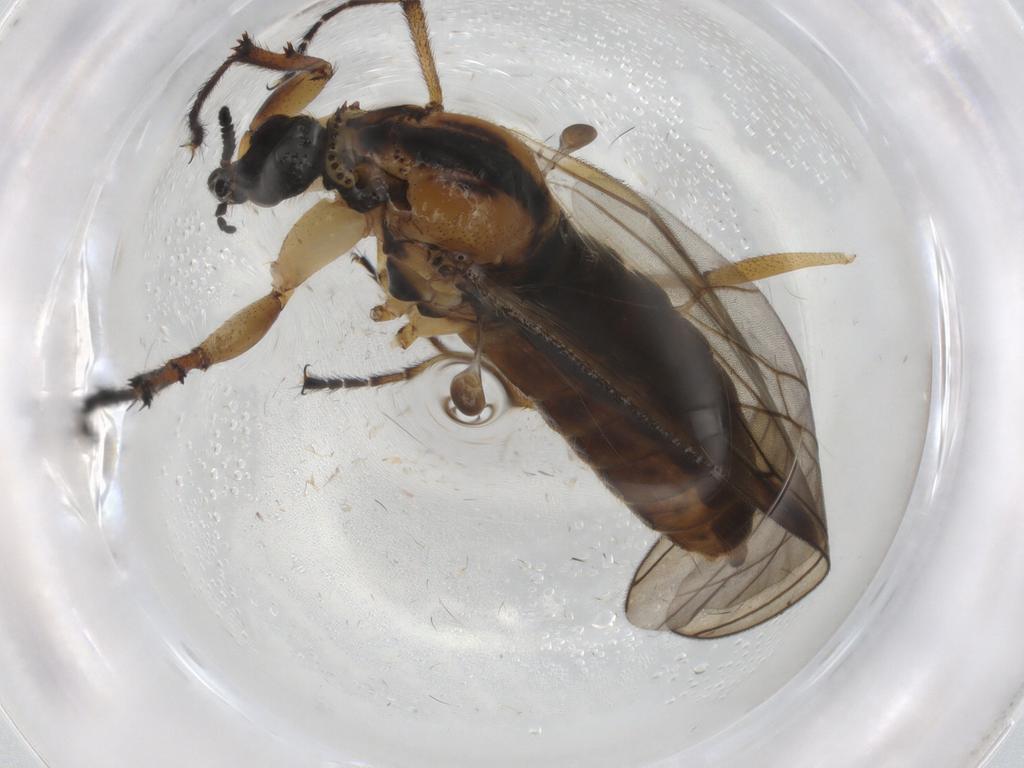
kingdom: Animalia
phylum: Arthropoda
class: Insecta
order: Diptera
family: Bibionidae
